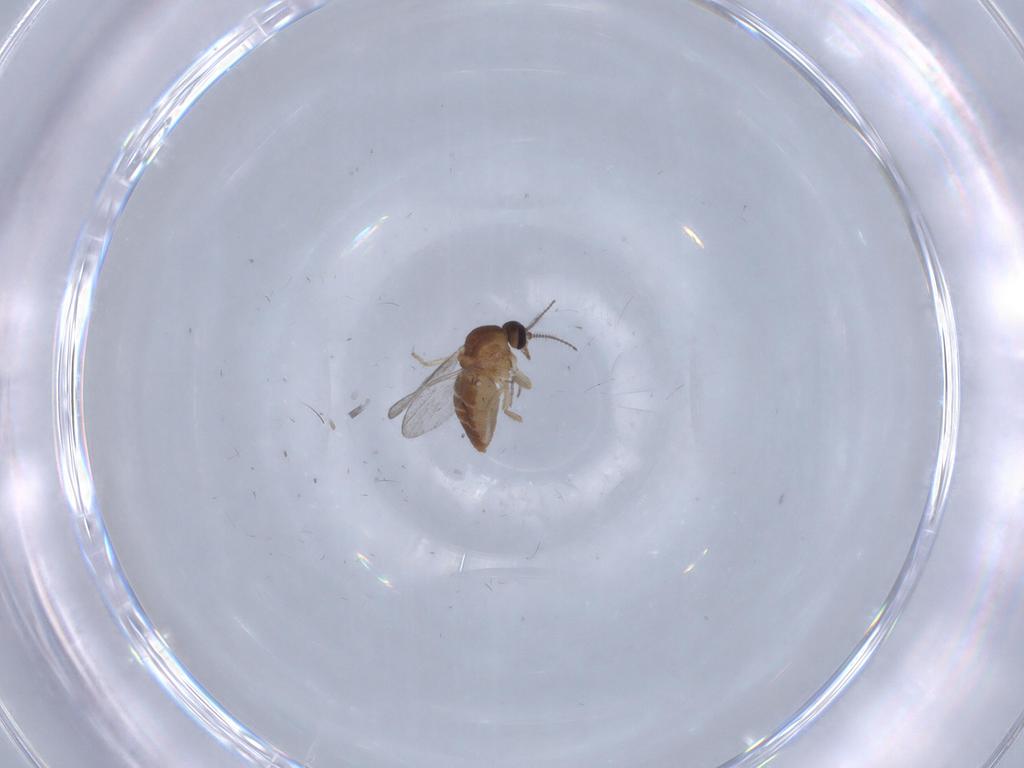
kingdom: Animalia
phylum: Arthropoda
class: Insecta
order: Diptera
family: Ceratopogonidae
